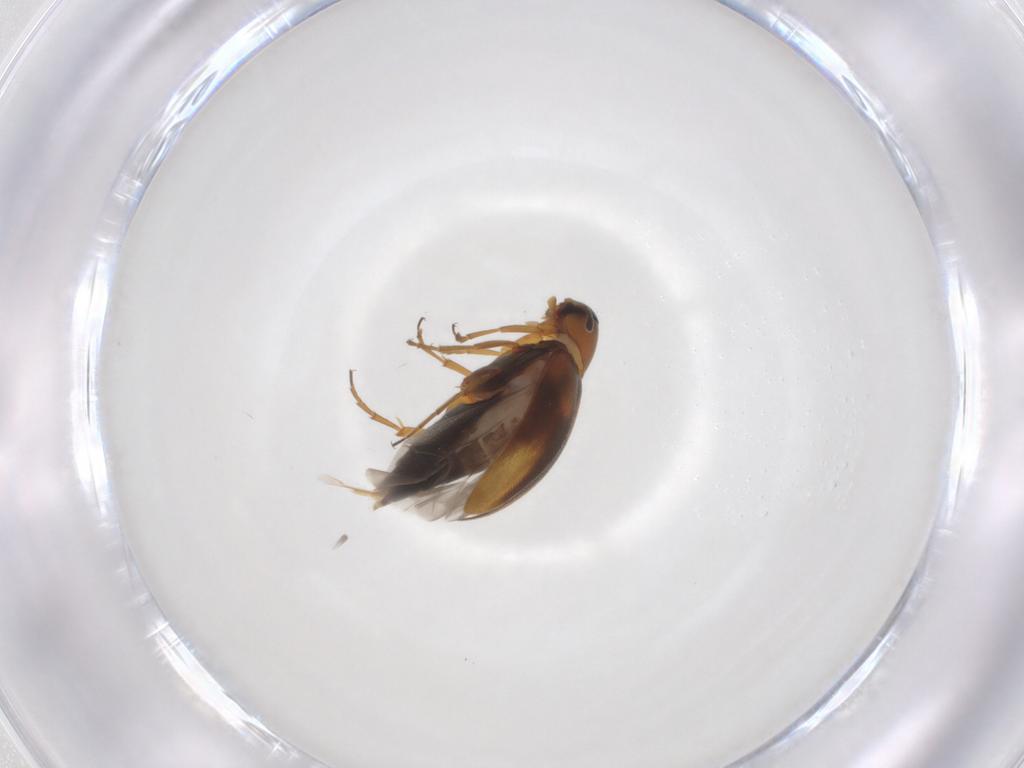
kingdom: Animalia
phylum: Arthropoda
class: Insecta
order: Coleoptera
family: Scraptiidae
